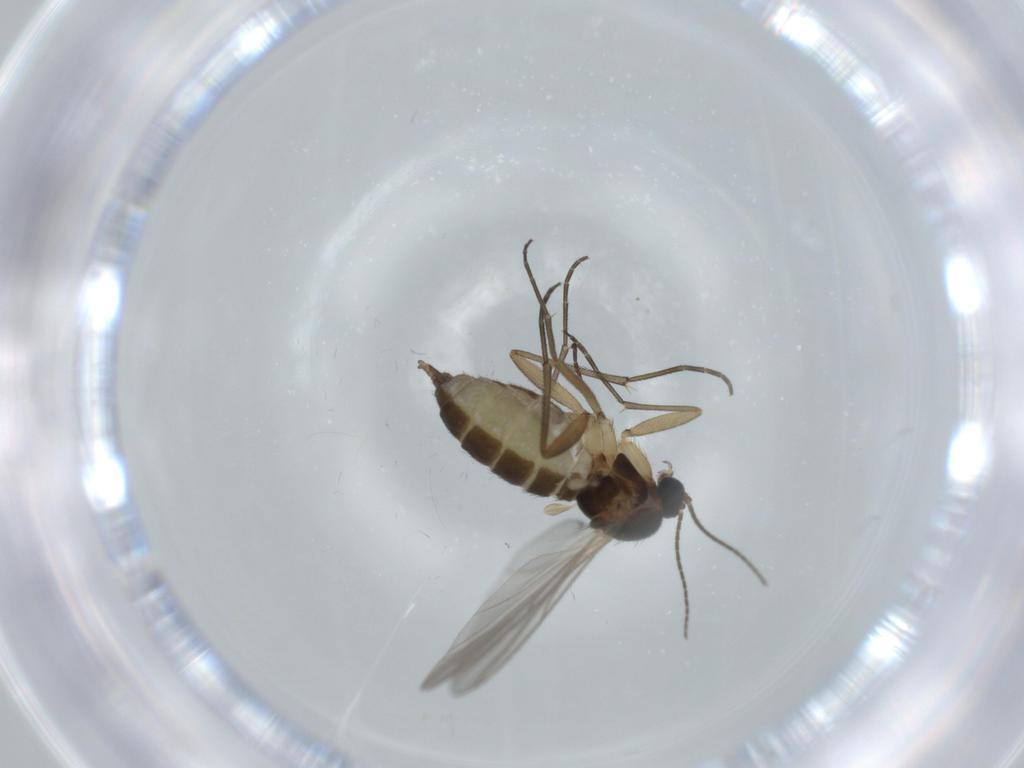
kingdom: Animalia
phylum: Arthropoda
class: Insecta
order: Diptera
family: Sciaridae
